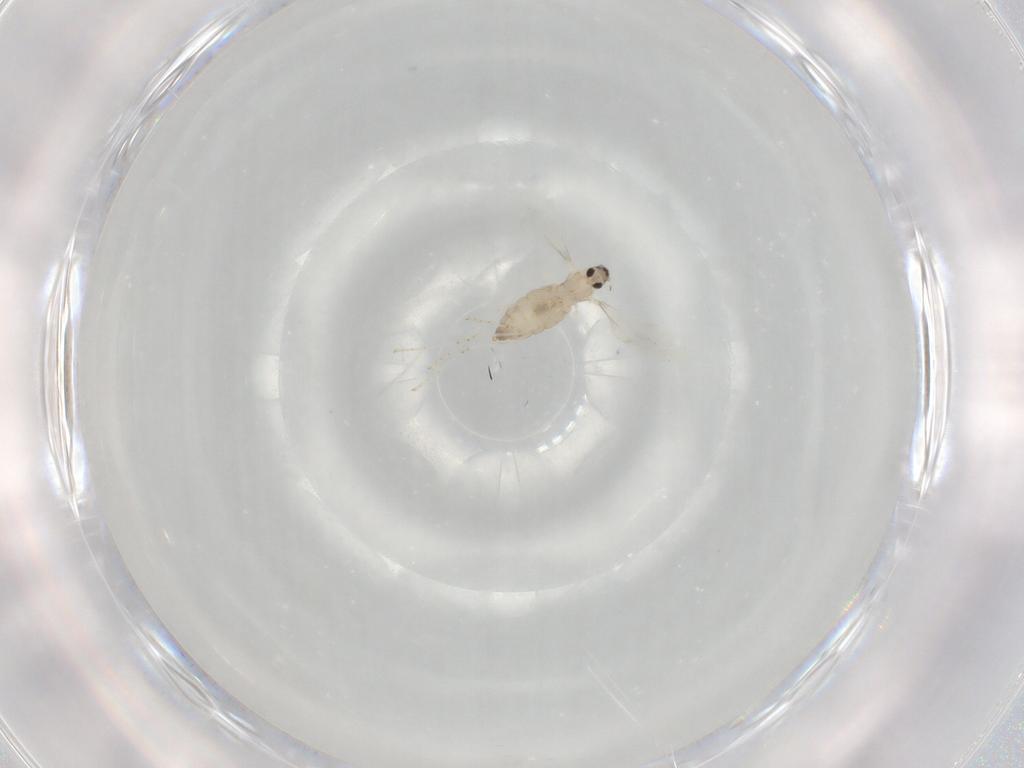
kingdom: Animalia
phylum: Arthropoda
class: Insecta
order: Diptera
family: Cecidomyiidae
